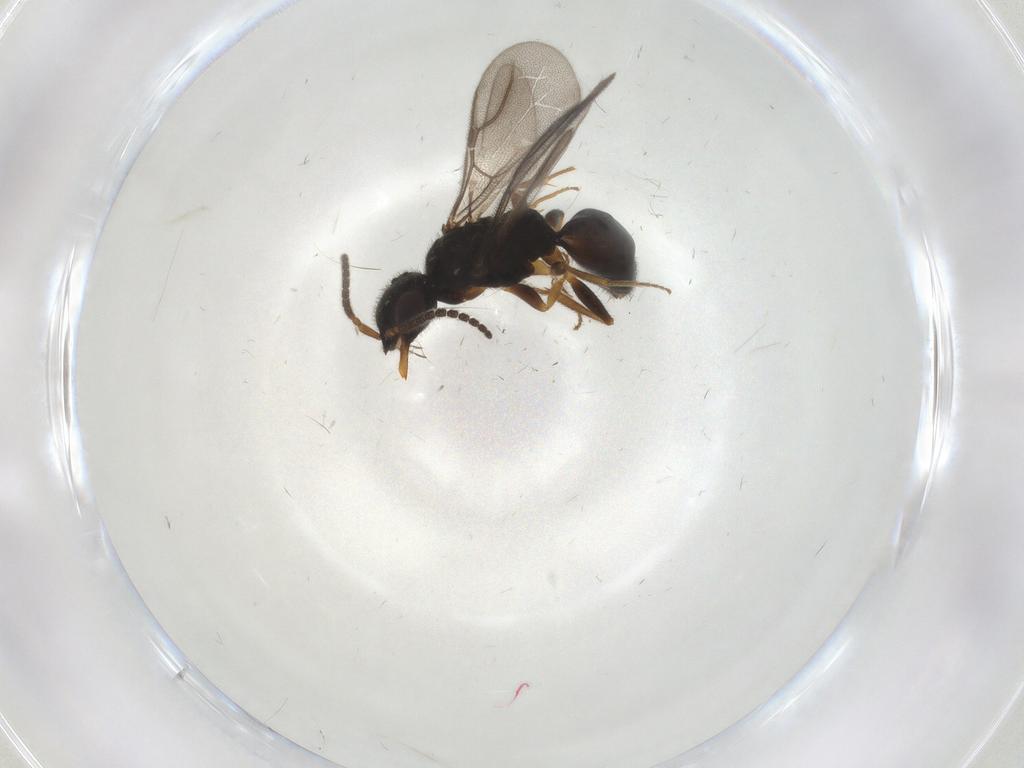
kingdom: Animalia
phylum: Arthropoda
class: Insecta
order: Hymenoptera
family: Bethylidae
